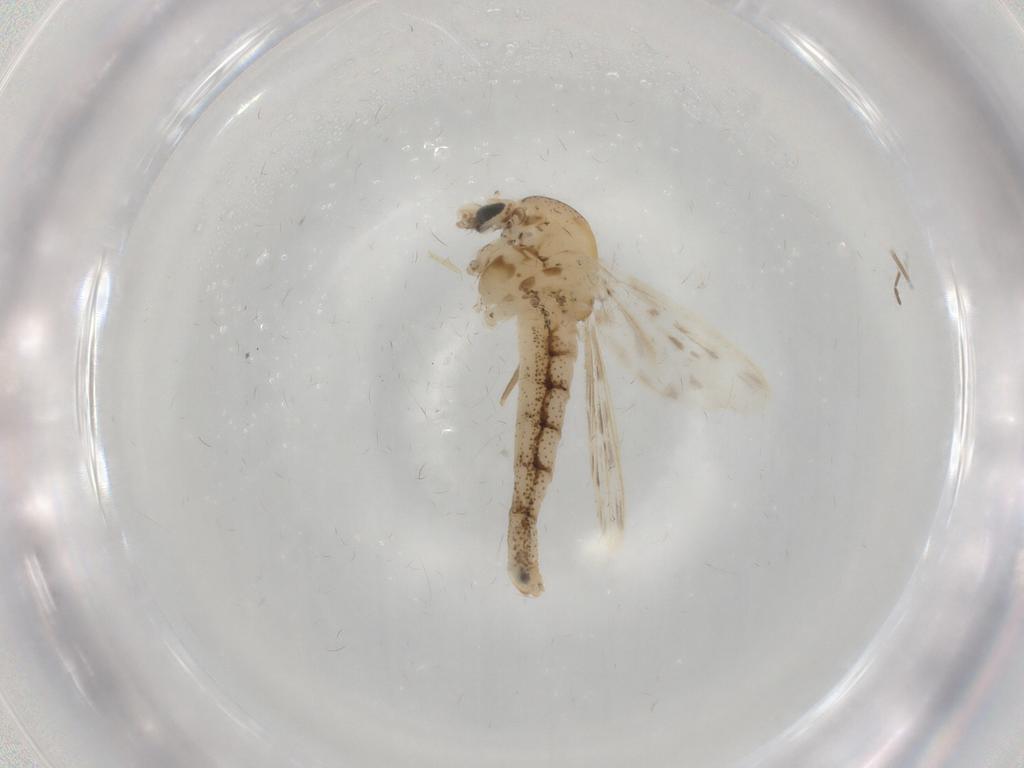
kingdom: Animalia
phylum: Arthropoda
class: Insecta
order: Diptera
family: Chaoboridae
